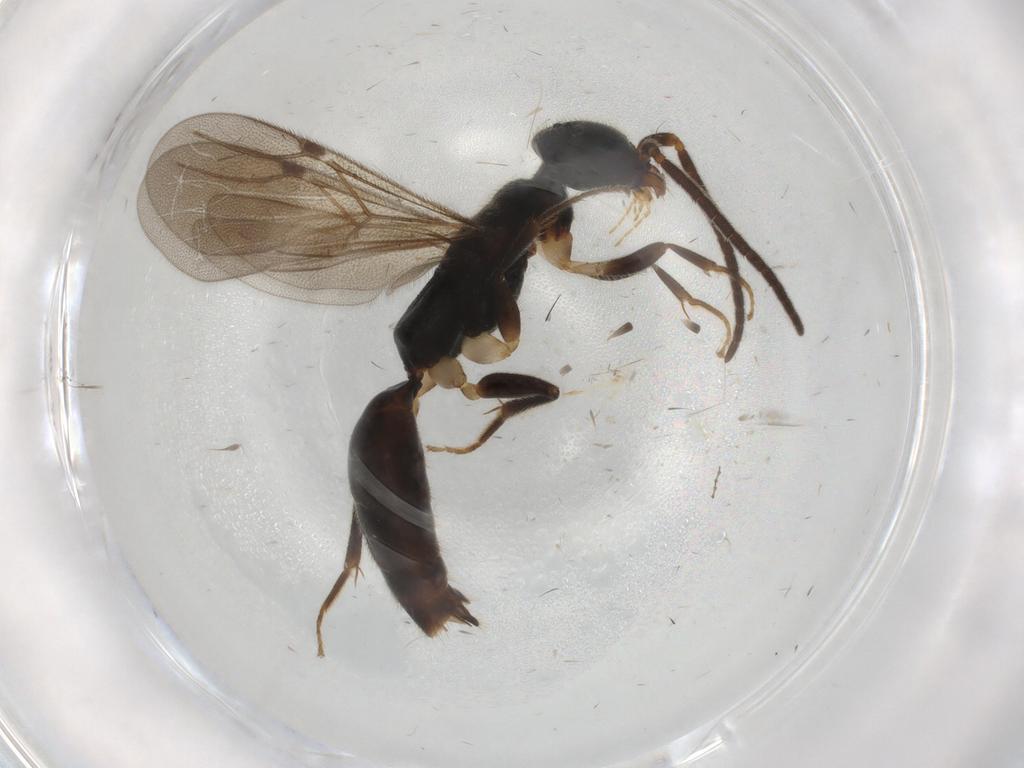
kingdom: Animalia
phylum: Arthropoda
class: Insecta
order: Hymenoptera
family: Bethylidae
